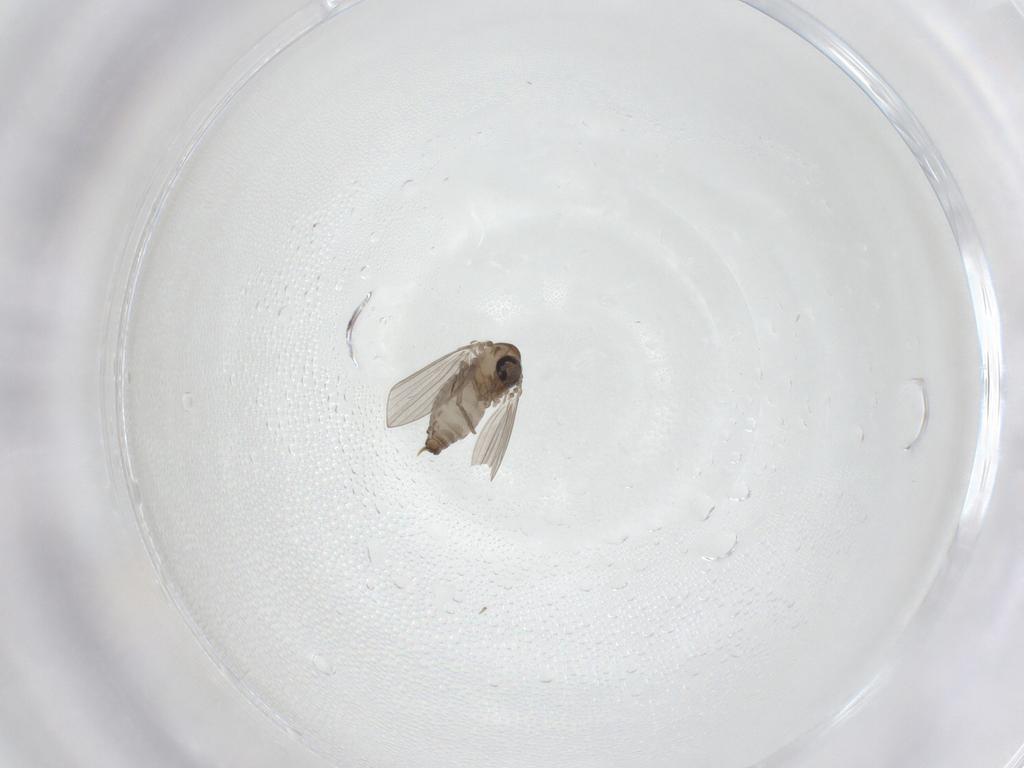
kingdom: Animalia
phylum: Arthropoda
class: Insecta
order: Diptera
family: Psychodidae
